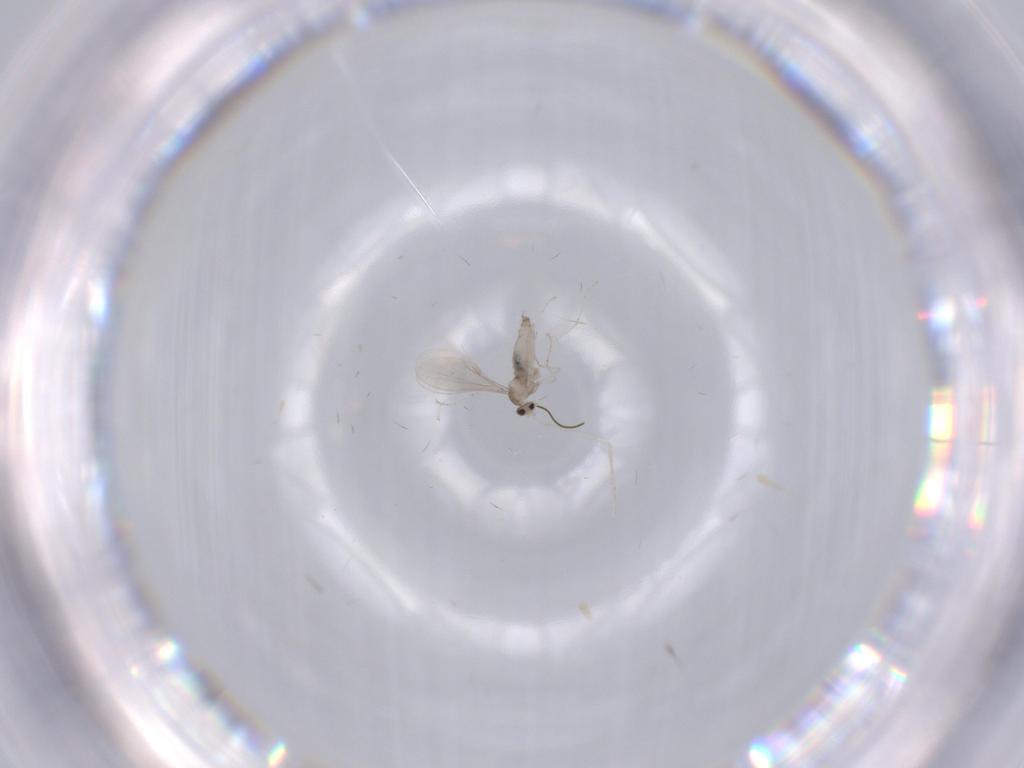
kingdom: Animalia
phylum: Arthropoda
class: Insecta
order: Diptera
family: Cecidomyiidae
